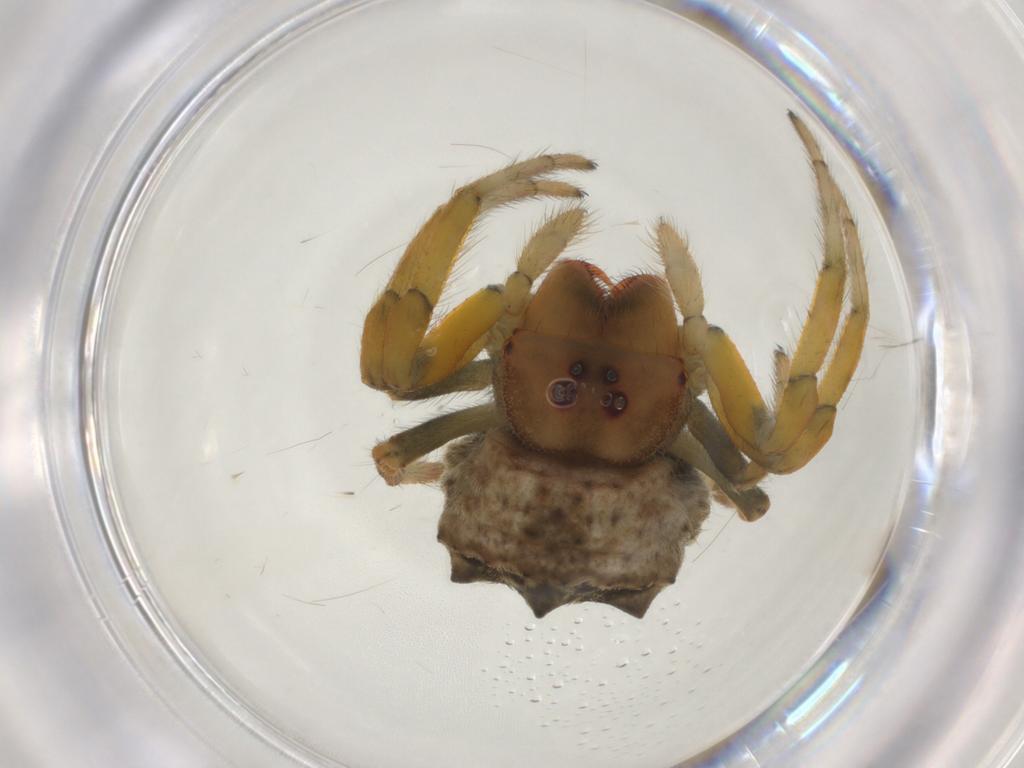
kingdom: Animalia
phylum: Arthropoda
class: Arachnida
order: Araneae
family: Araneidae
